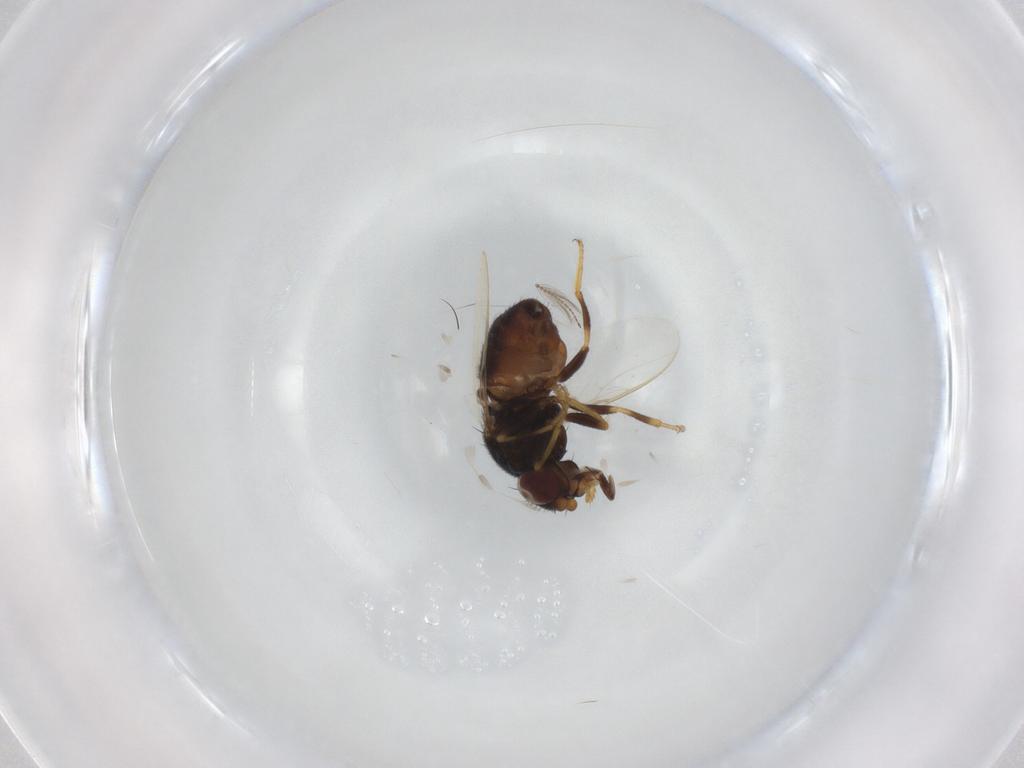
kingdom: Animalia
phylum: Arthropoda
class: Insecta
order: Diptera
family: Chloropidae
